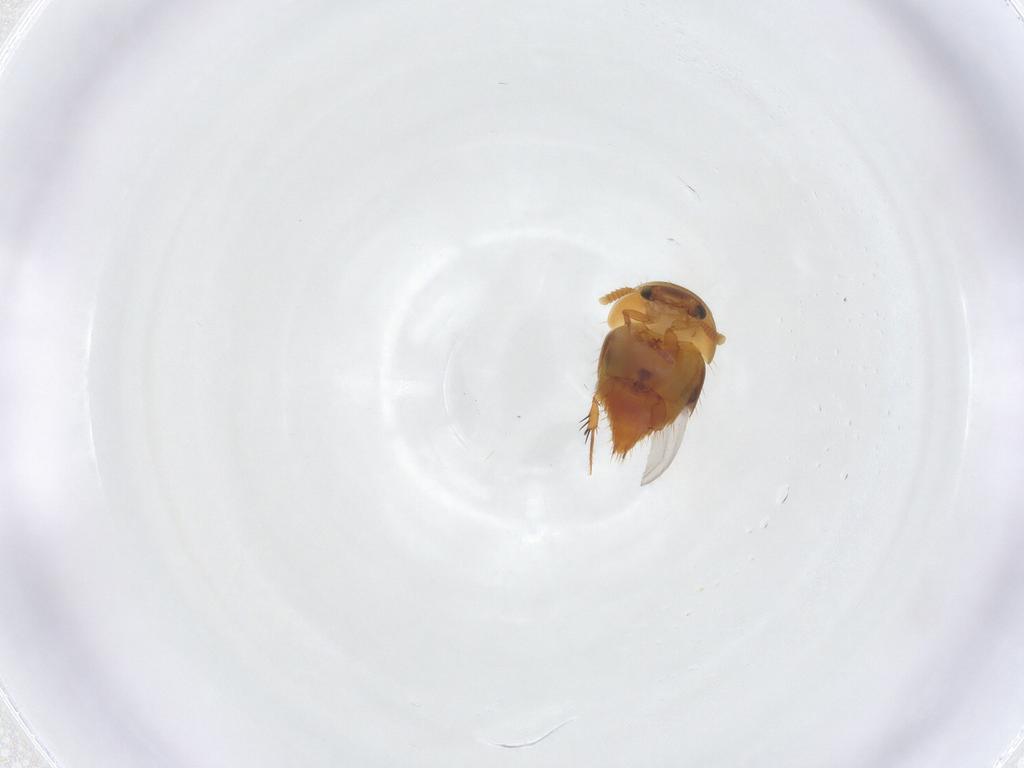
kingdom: Animalia
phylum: Arthropoda
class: Insecta
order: Coleoptera
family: Staphylinidae
